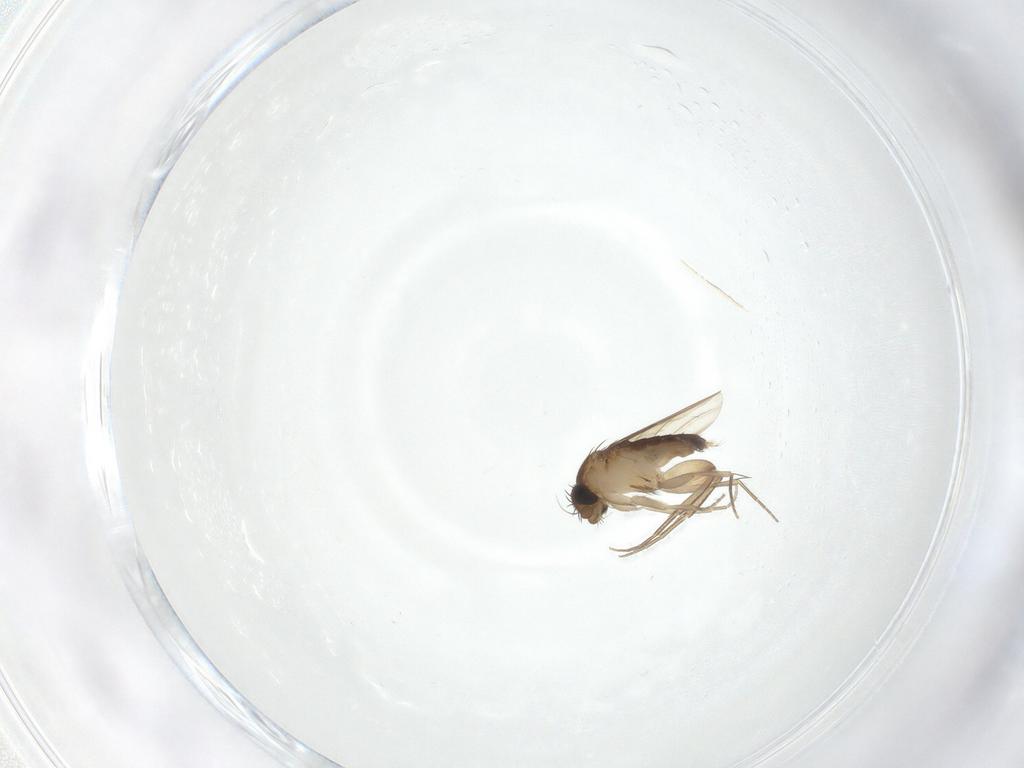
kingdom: Animalia
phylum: Arthropoda
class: Insecta
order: Diptera
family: Phoridae
